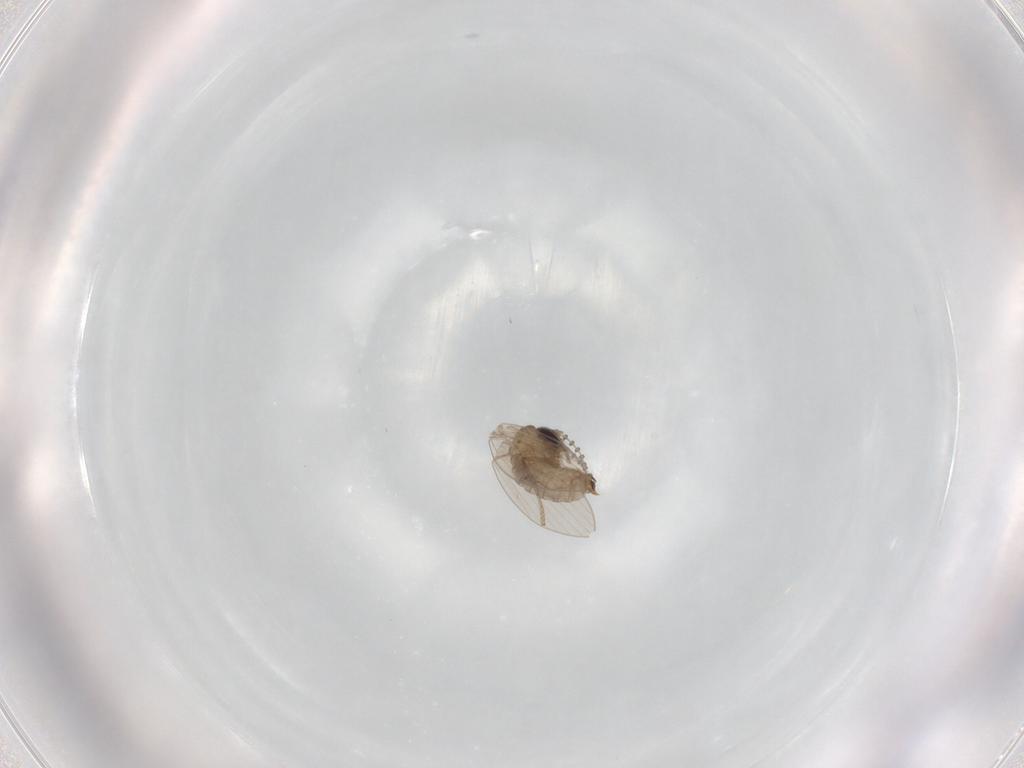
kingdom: Animalia
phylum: Arthropoda
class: Insecta
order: Diptera
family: Psychodidae
